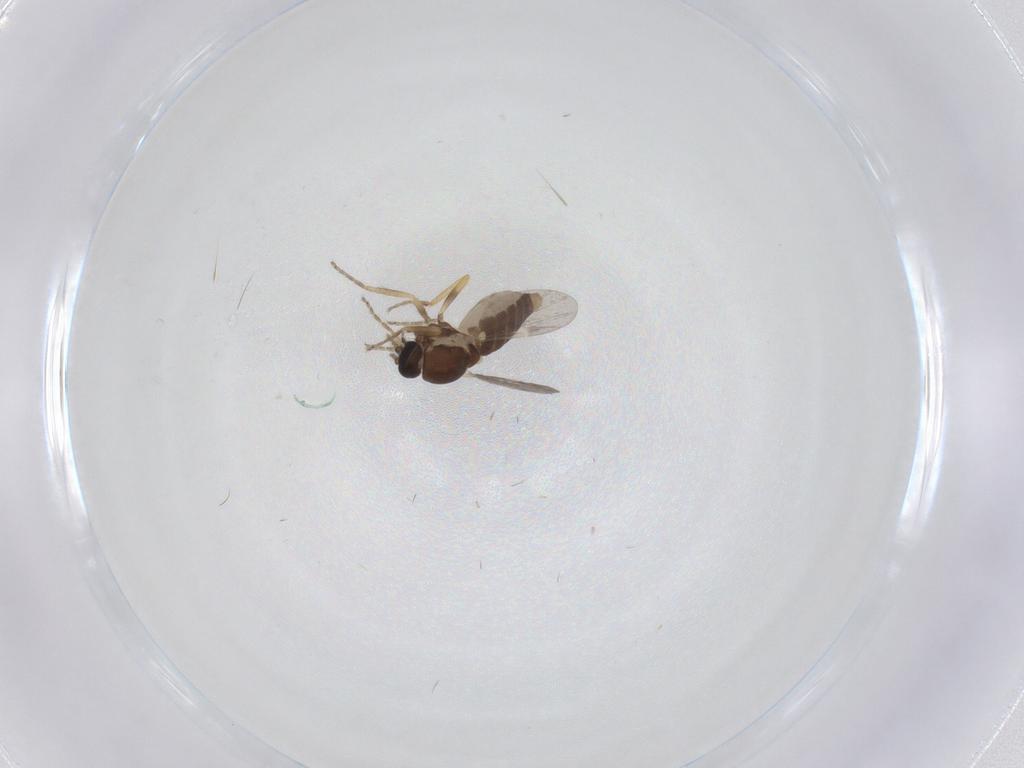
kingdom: Animalia
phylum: Arthropoda
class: Insecta
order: Diptera
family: Ceratopogonidae
